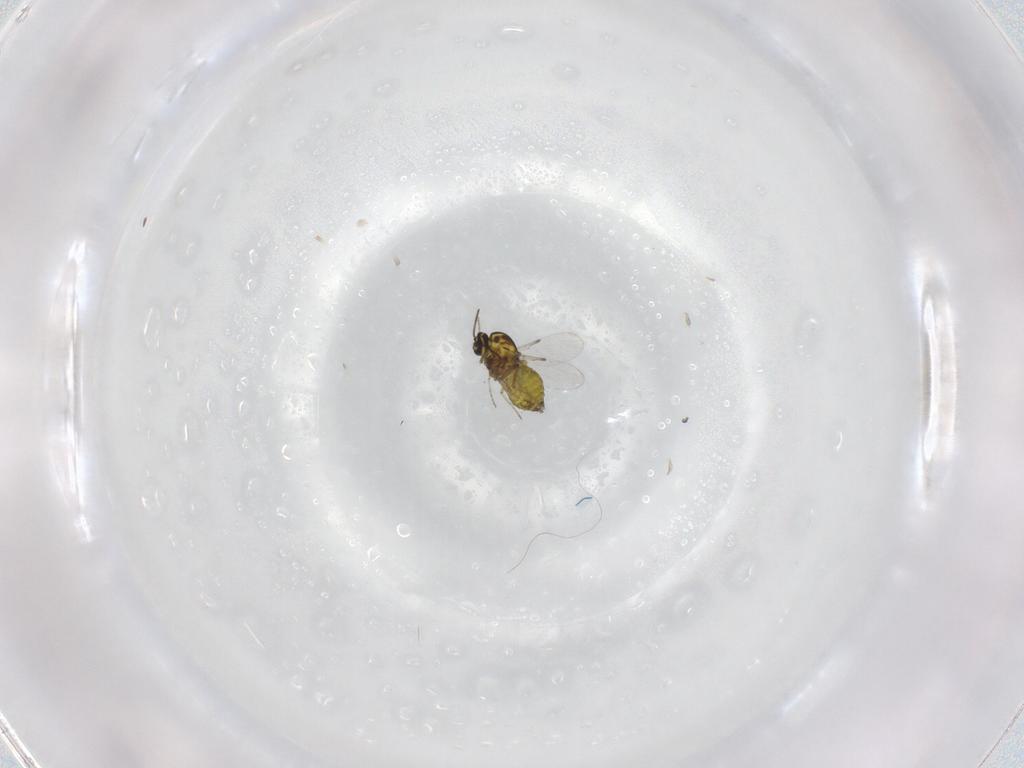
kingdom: Animalia
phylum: Arthropoda
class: Insecta
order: Diptera
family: Ceratopogonidae
